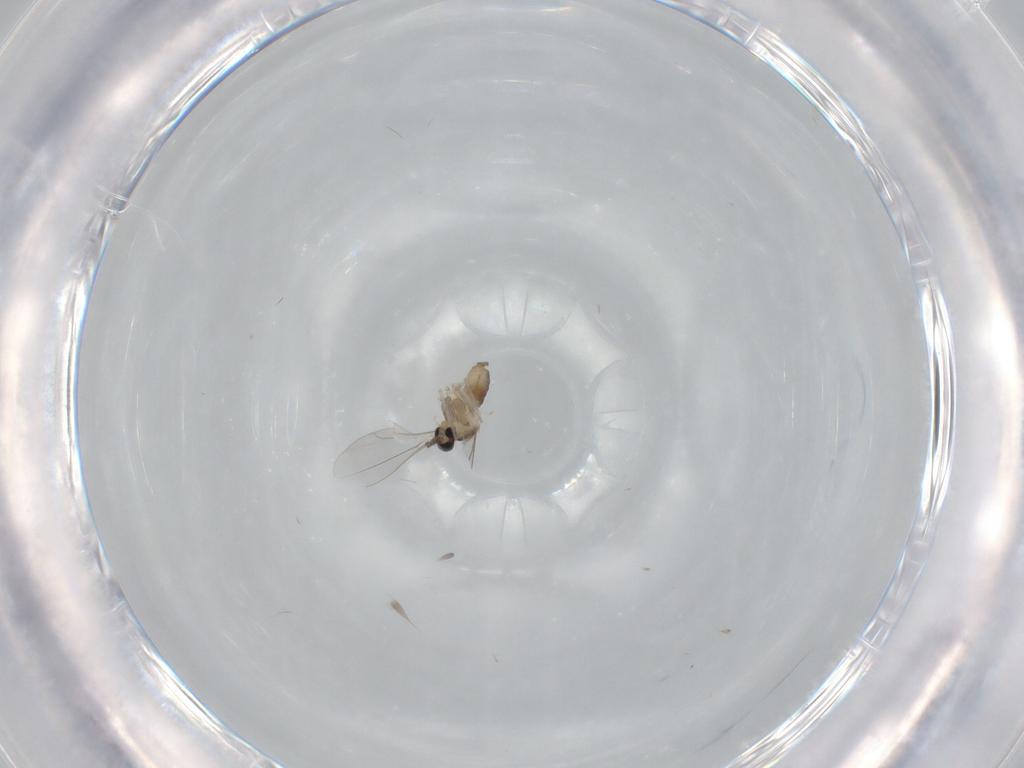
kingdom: Animalia
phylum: Arthropoda
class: Insecta
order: Diptera
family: Cecidomyiidae
